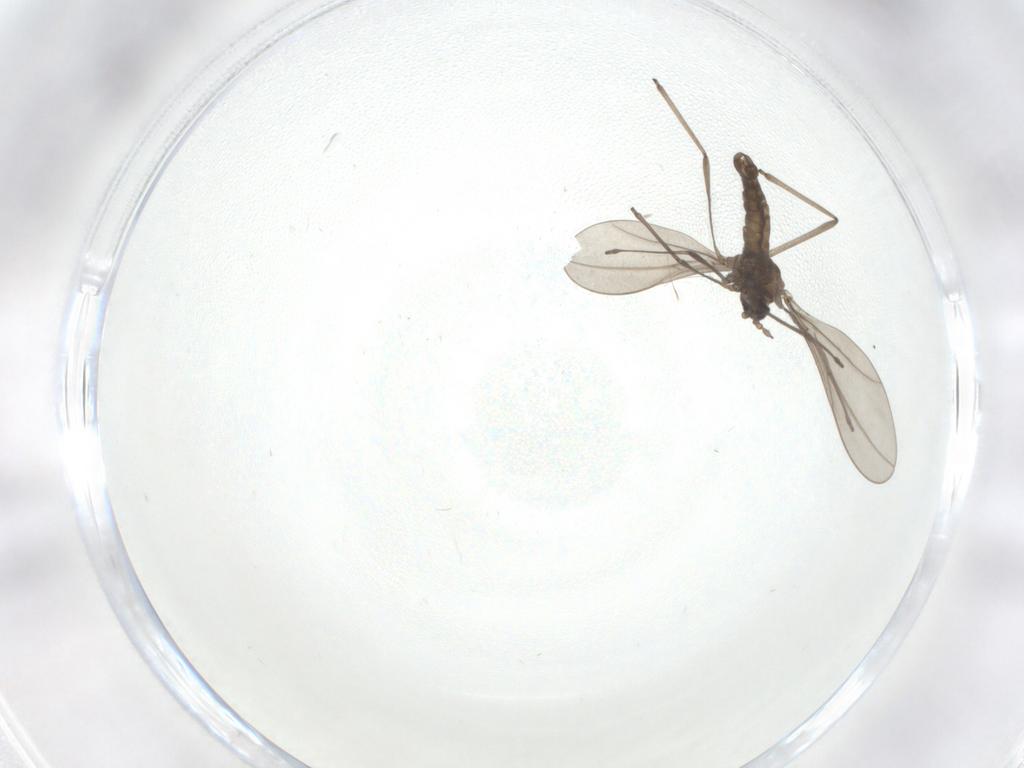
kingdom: Animalia
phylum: Arthropoda
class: Insecta
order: Diptera
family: Cecidomyiidae
